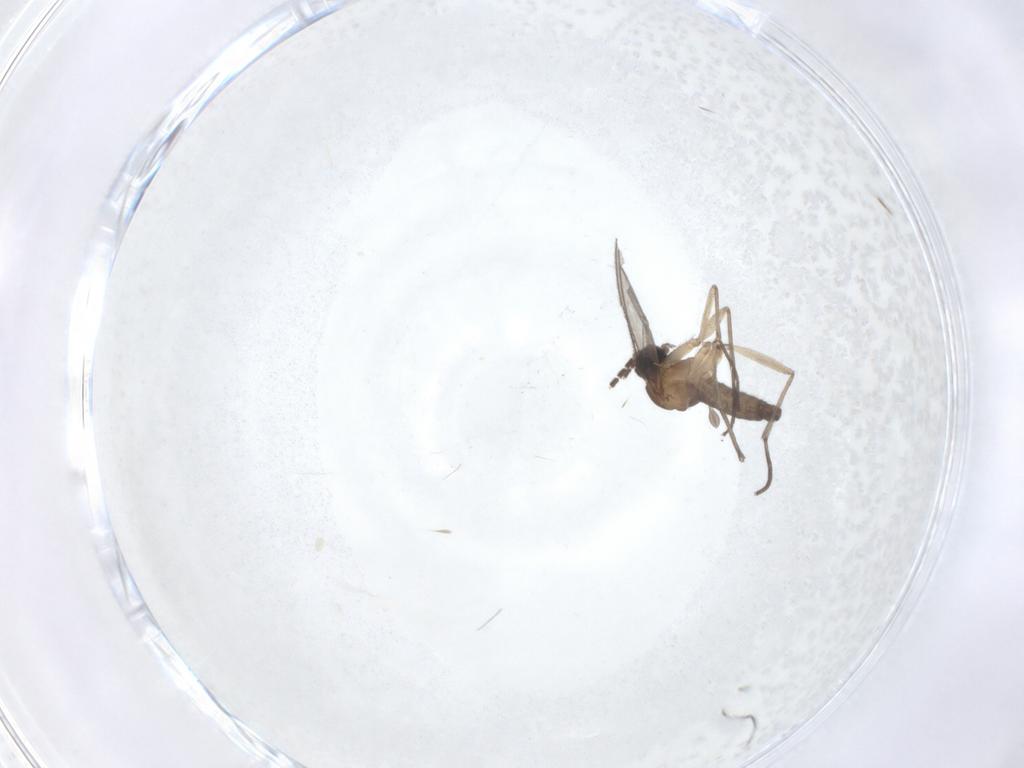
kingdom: Animalia
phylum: Arthropoda
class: Insecta
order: Diptera
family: Sciaridae
